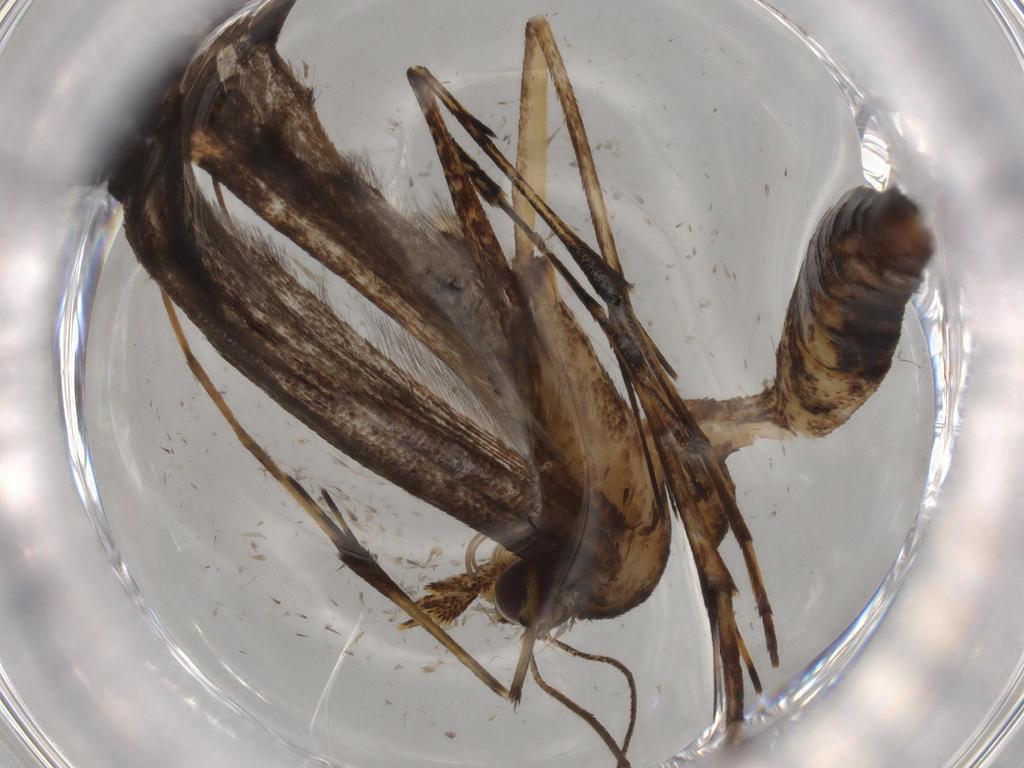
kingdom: Animalia
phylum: Arthropoda
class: Insecta
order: Lepidoptera
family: Pterophoridae
